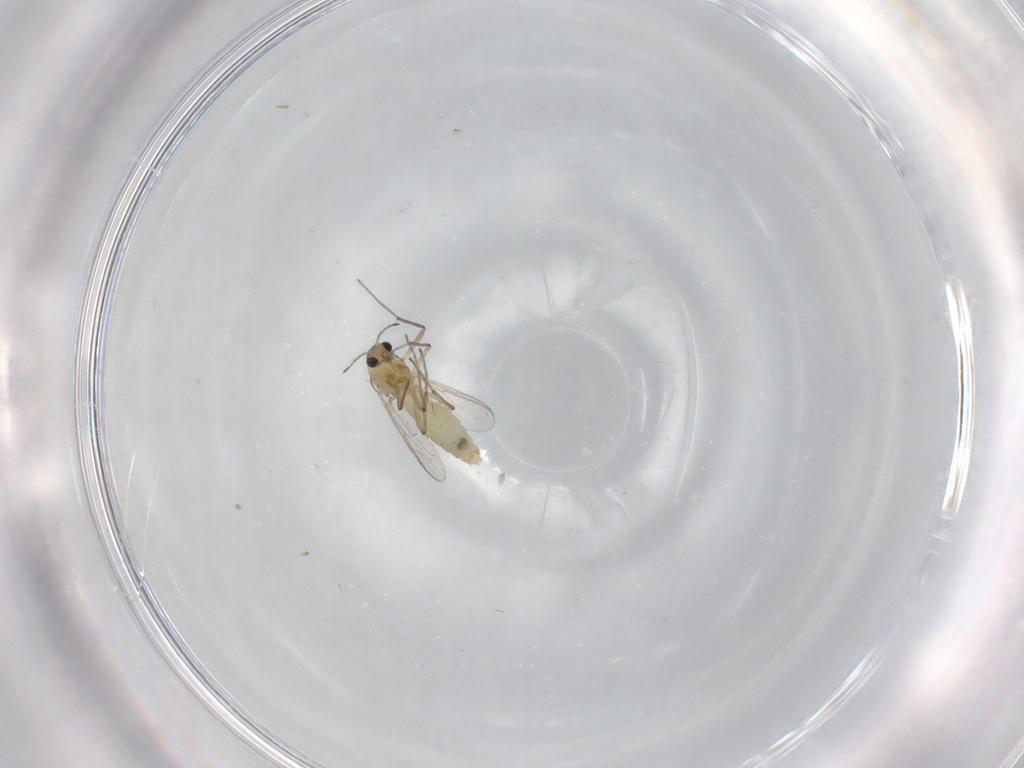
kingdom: Animalia
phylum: Arthropoda
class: Insecta
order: Diptera
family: Chironomidae
